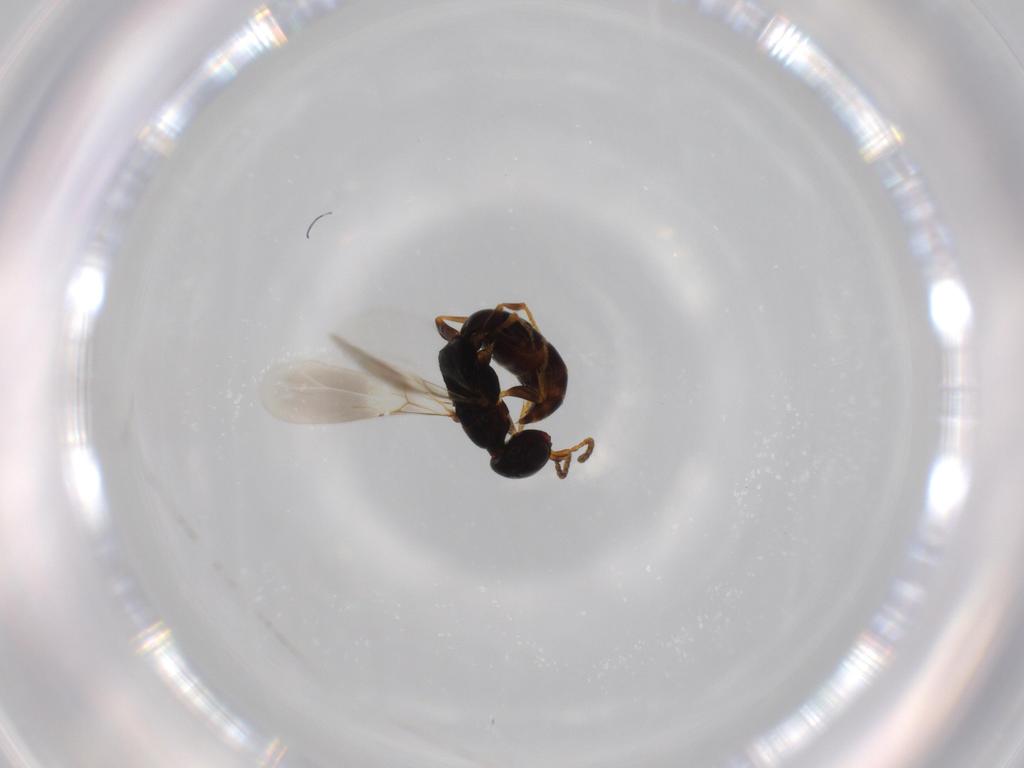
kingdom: Animalia
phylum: Arthropoda
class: Insecta
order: Hymenoptera
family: Bethylidae
